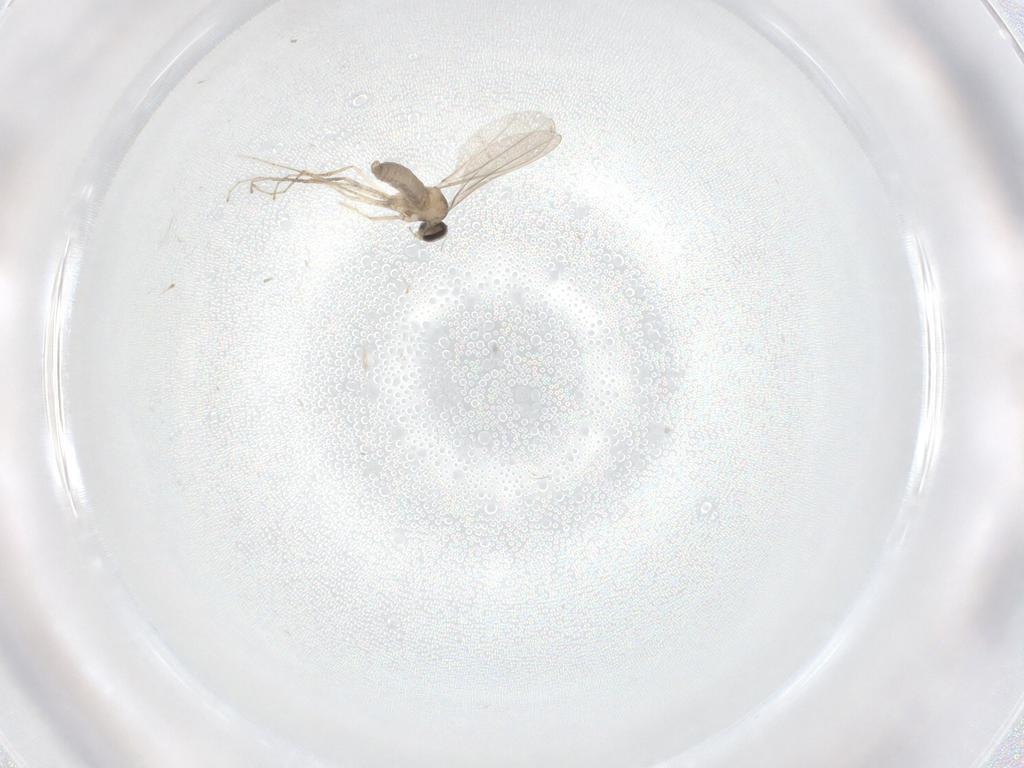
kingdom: Animalia
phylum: Arthropoda
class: Insecta
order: Diptera
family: Cecidomyiidae
